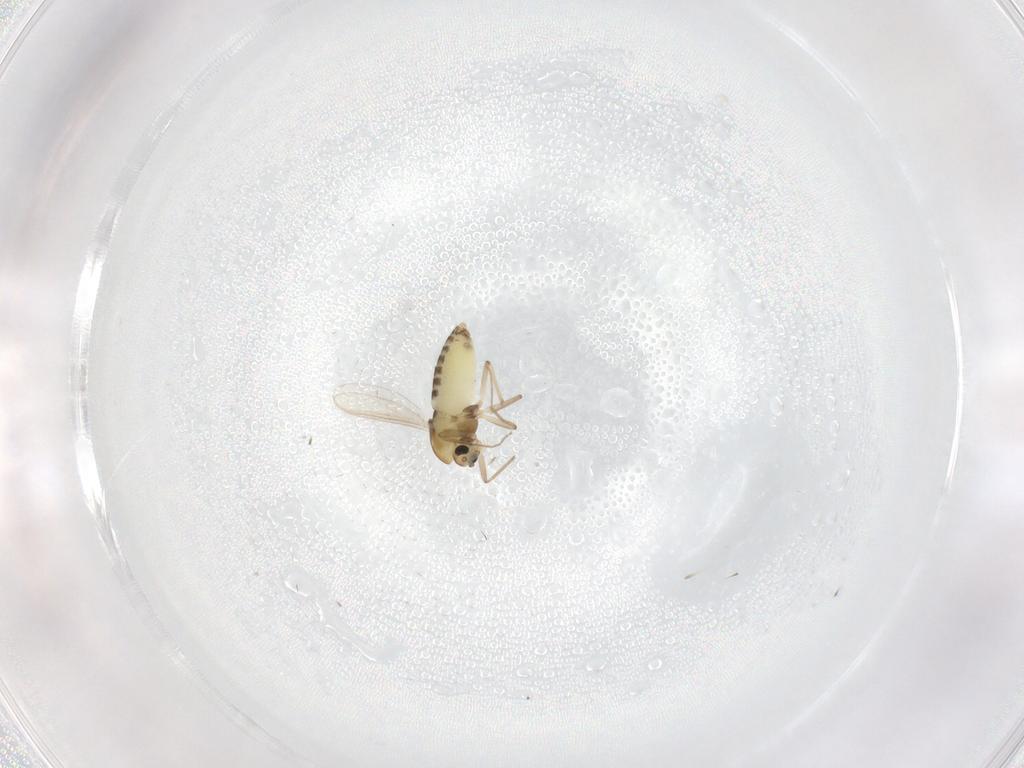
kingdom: Animalia
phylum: Arthropoda
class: Insecta
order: Diptera
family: Chironomidae
